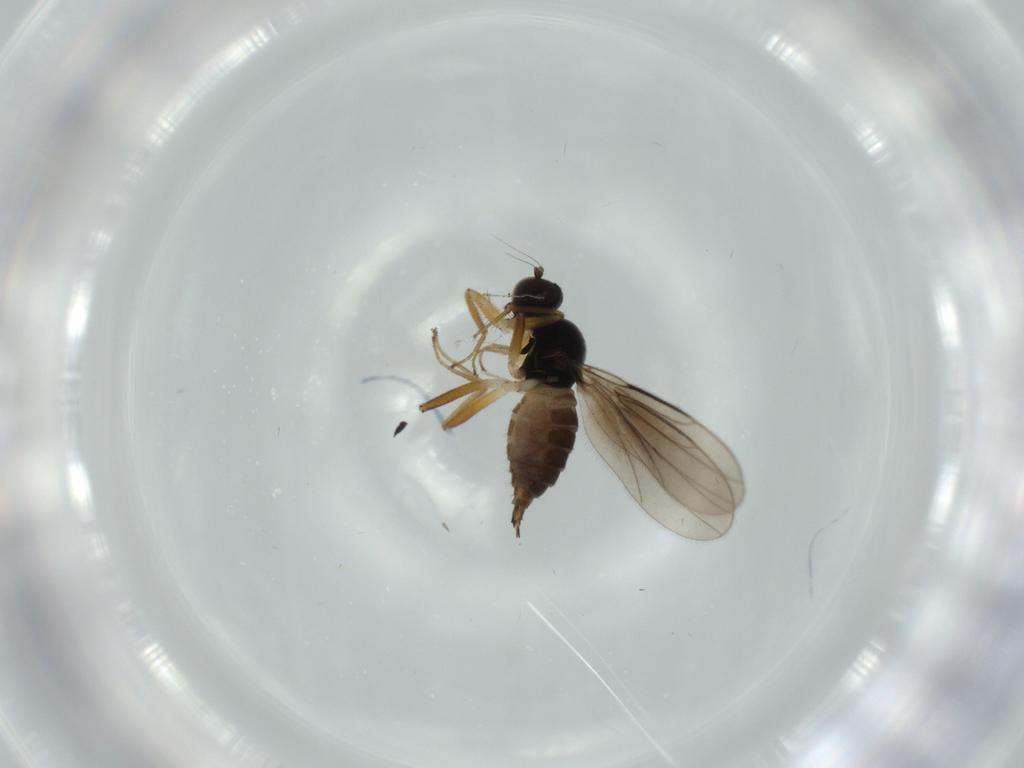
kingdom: Animalia
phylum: Arthropoda
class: Insecta
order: Diptera
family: Hybotidae
